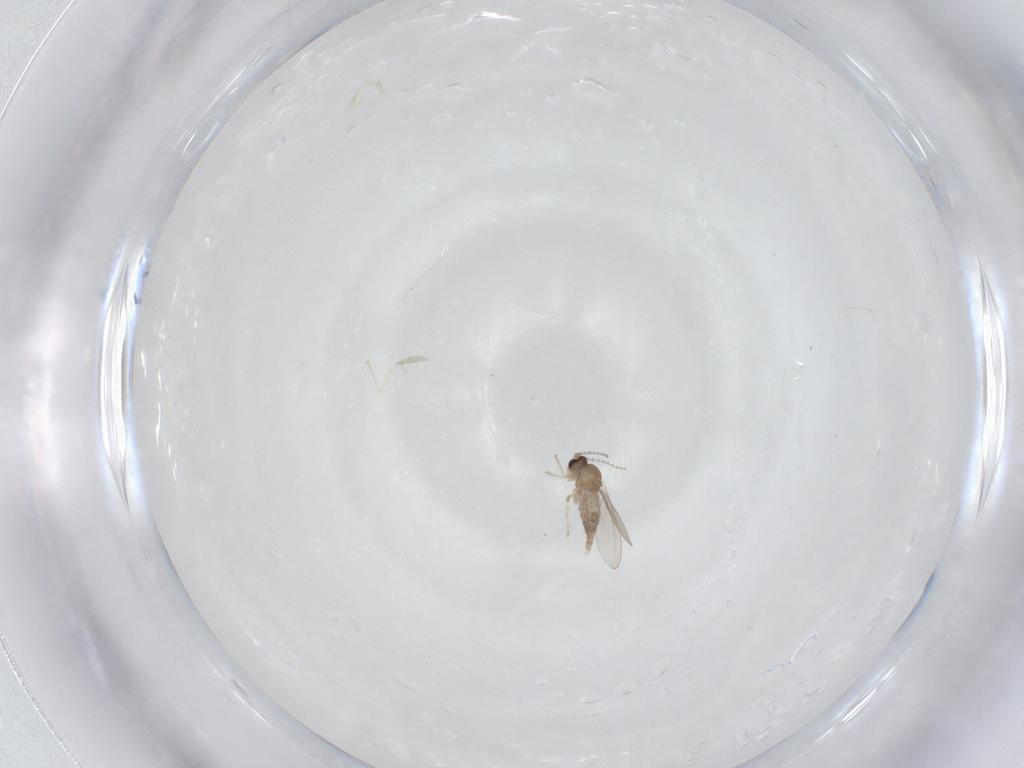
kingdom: Animalia
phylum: Arthropoda
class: Insecta
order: Diptera
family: Cecidomyiidae
